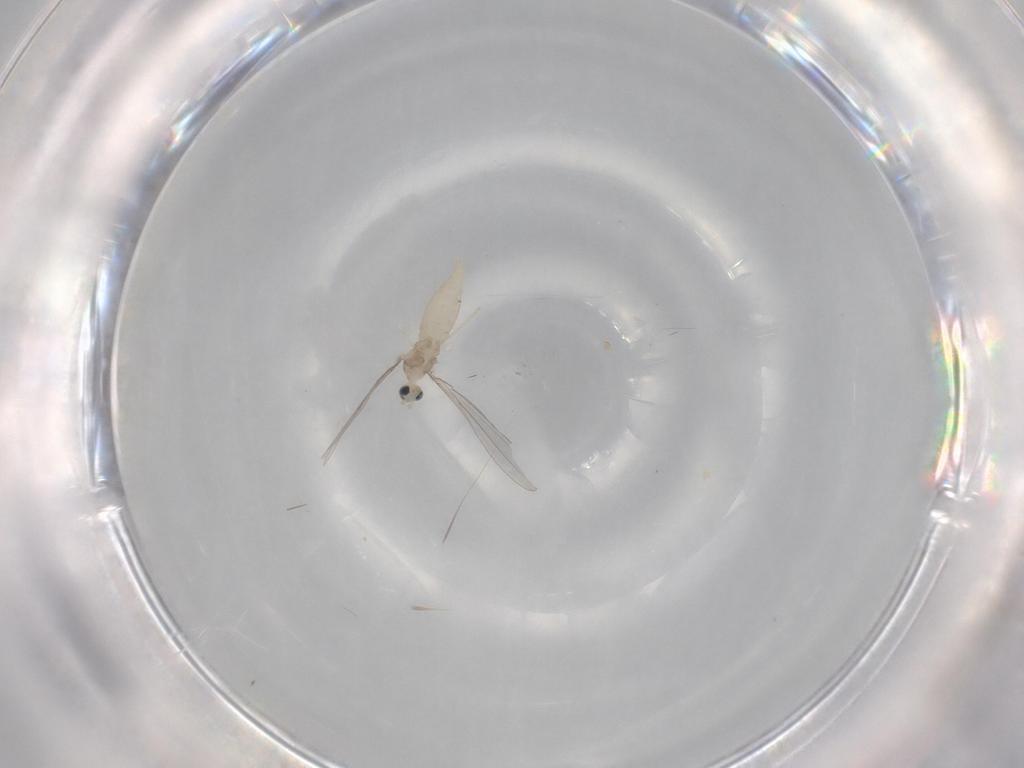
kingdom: Animalia
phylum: Arthropoda
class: Insecta
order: Diptera
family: Cecidomyiidae
